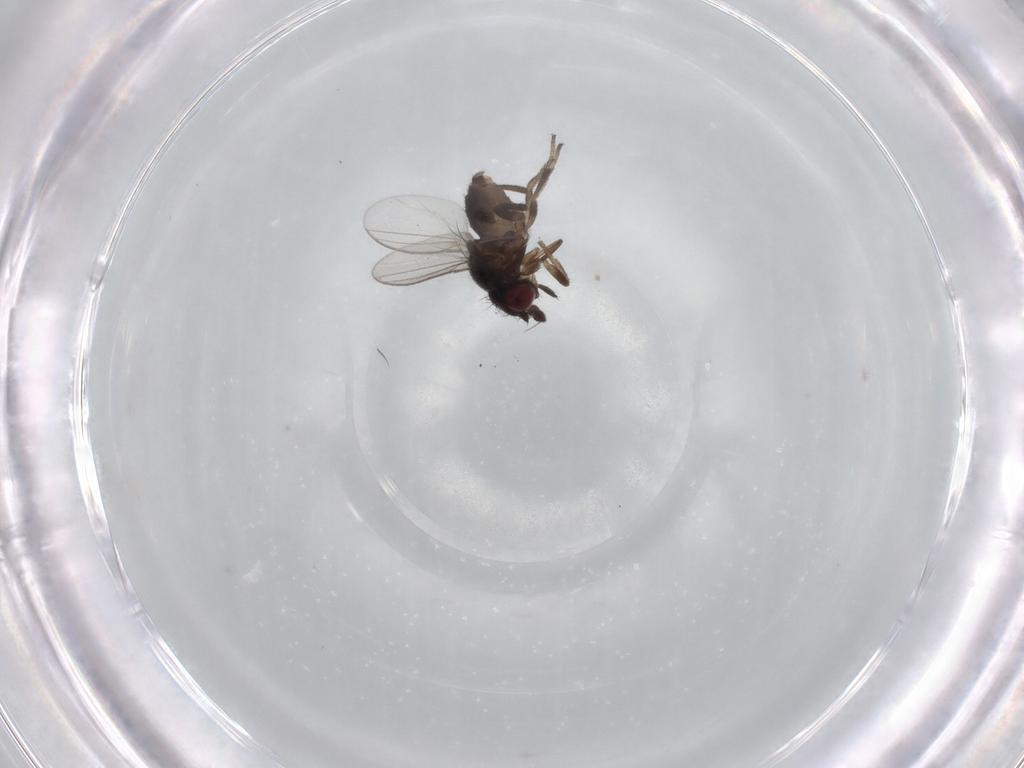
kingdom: Animalia
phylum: Arthropoda
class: Insecta
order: Diptera
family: Milichiidae
